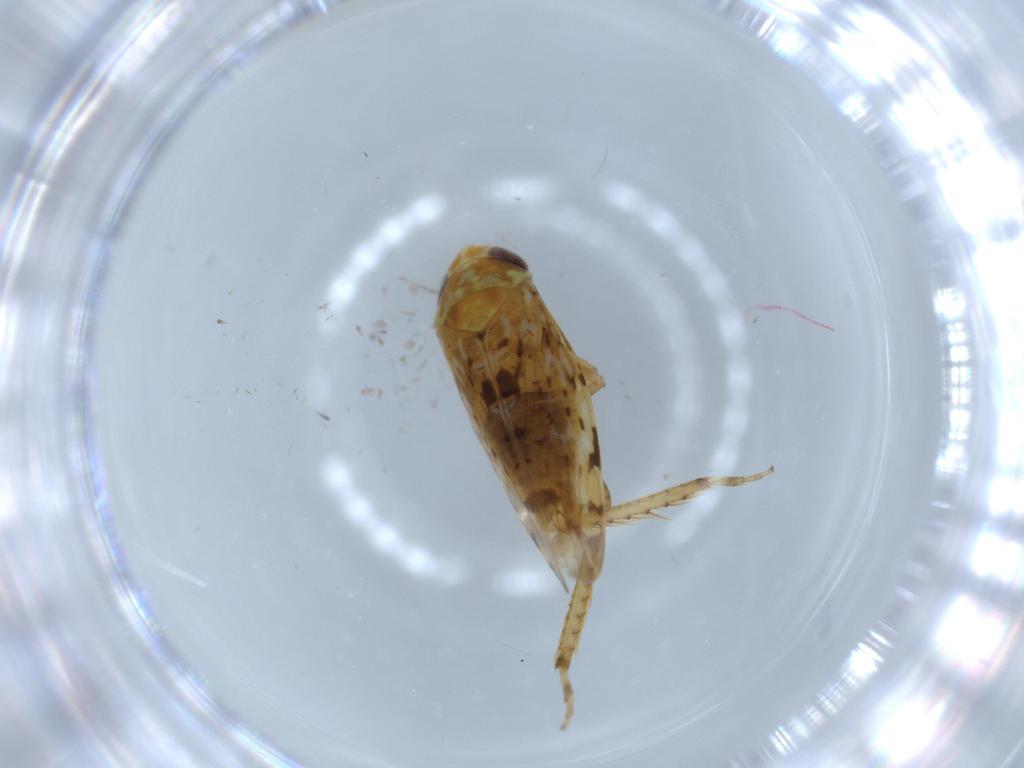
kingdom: Animalia
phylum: Arthropoda
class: Insecta
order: Hemiptera
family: Cicadellidae
